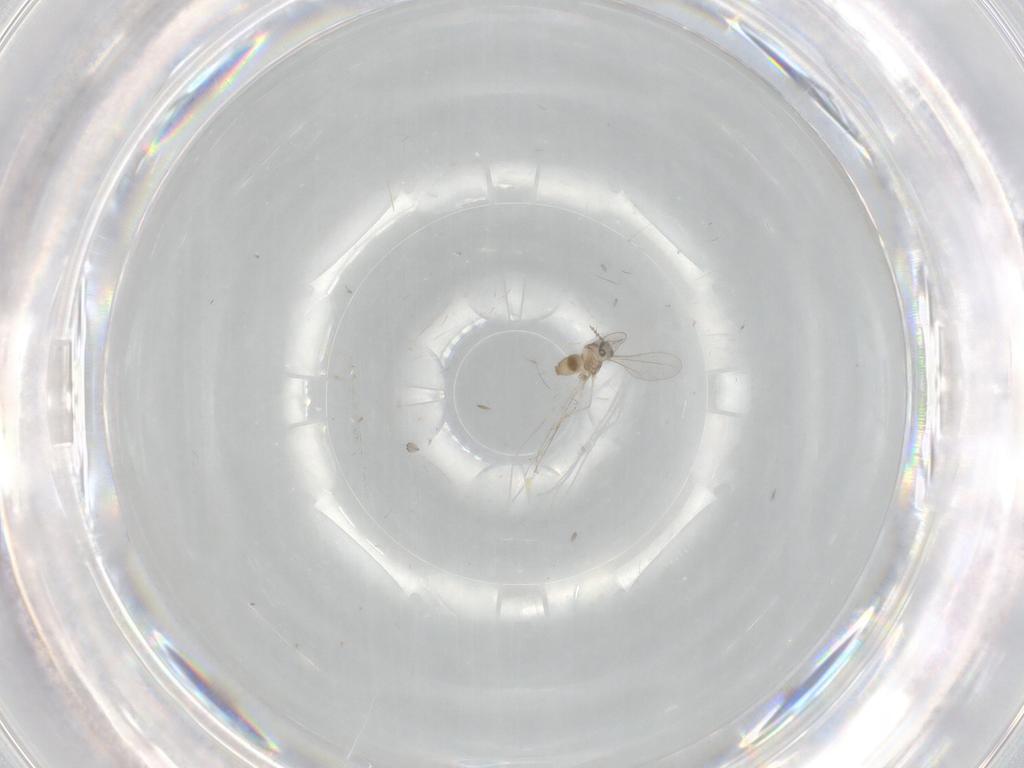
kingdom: Animalia
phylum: Arthropoda
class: Insecta
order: Diptera
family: Cecidomyiidae
